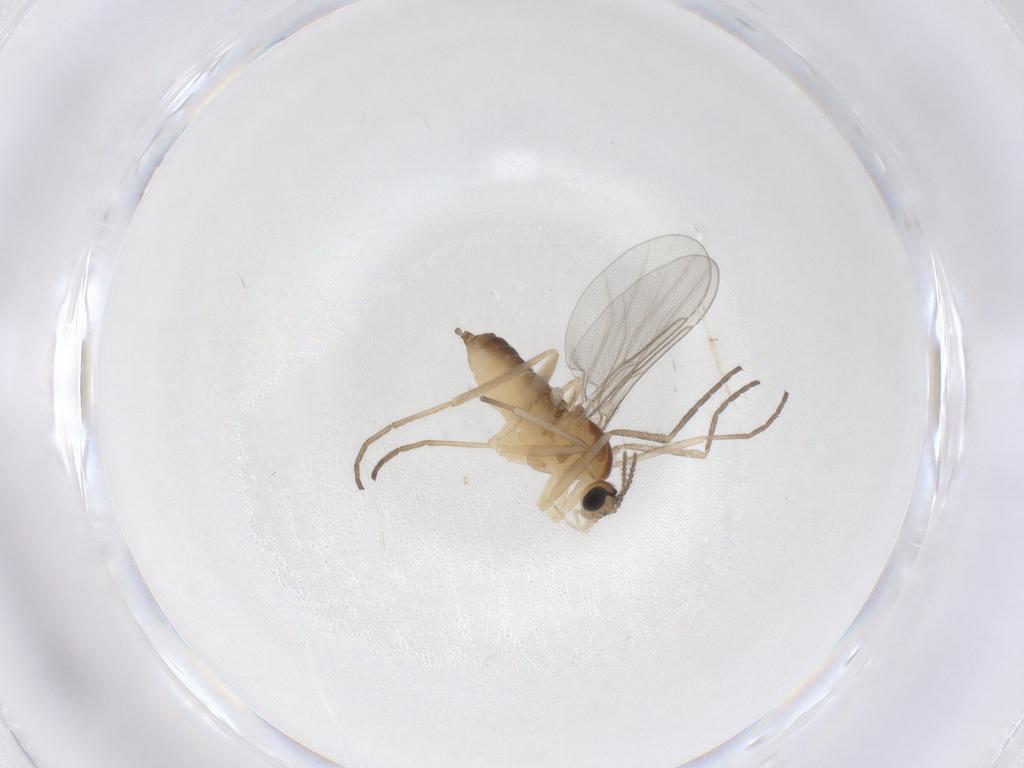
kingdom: Animalia
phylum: Arthropoda
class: Insecta
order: Diptera
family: Cecidomyiidae
